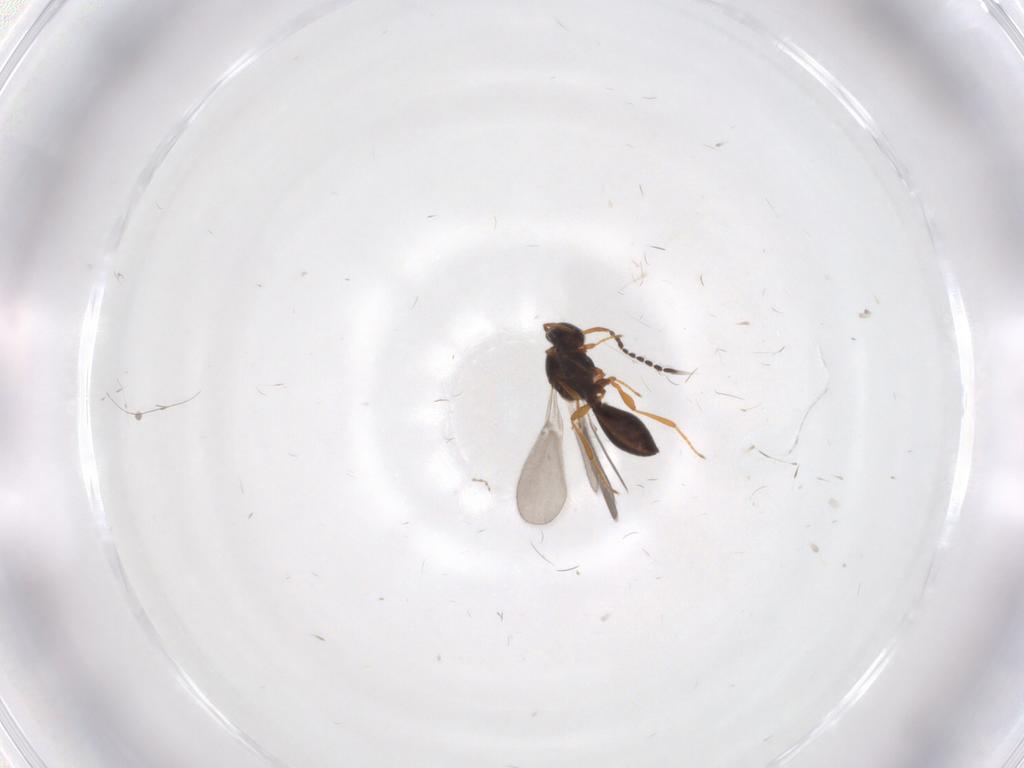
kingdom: Animalia
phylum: Arthropoda
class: Insecta
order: Hymenoptera
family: Platygastridae
